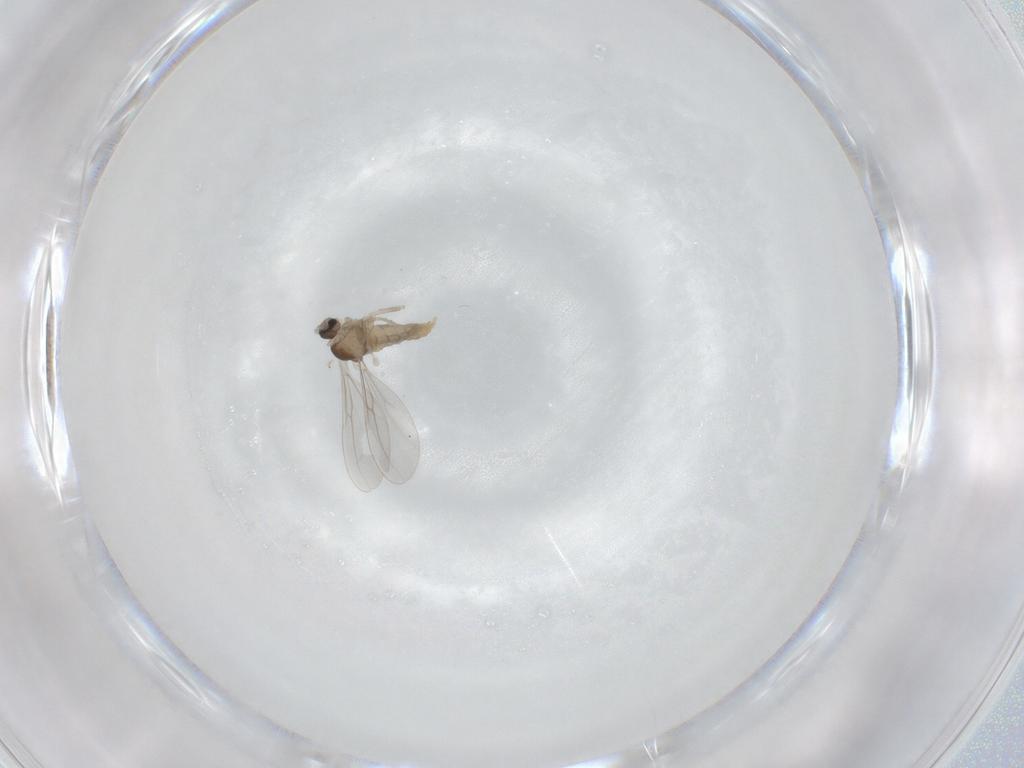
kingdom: Animalia
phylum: Arthropoda
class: Insecta
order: Diptera
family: Cecidomyiidae
